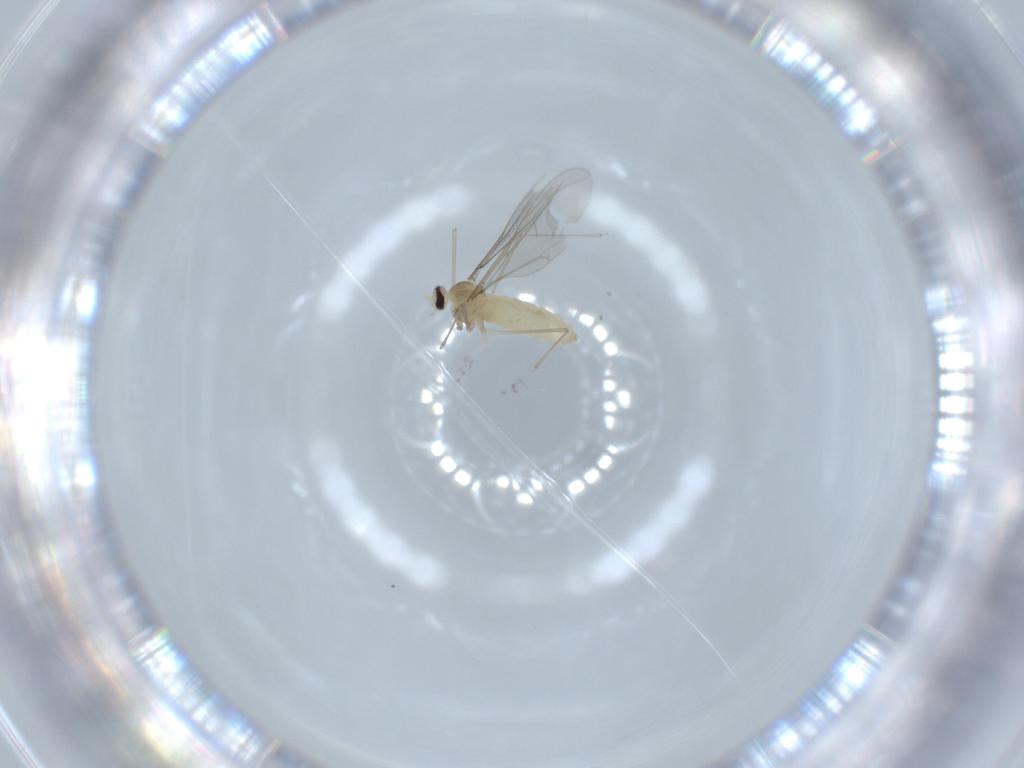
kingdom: Animalia
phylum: Arthropoda
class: Insecta
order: Diptera
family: Cecidomyiidae
